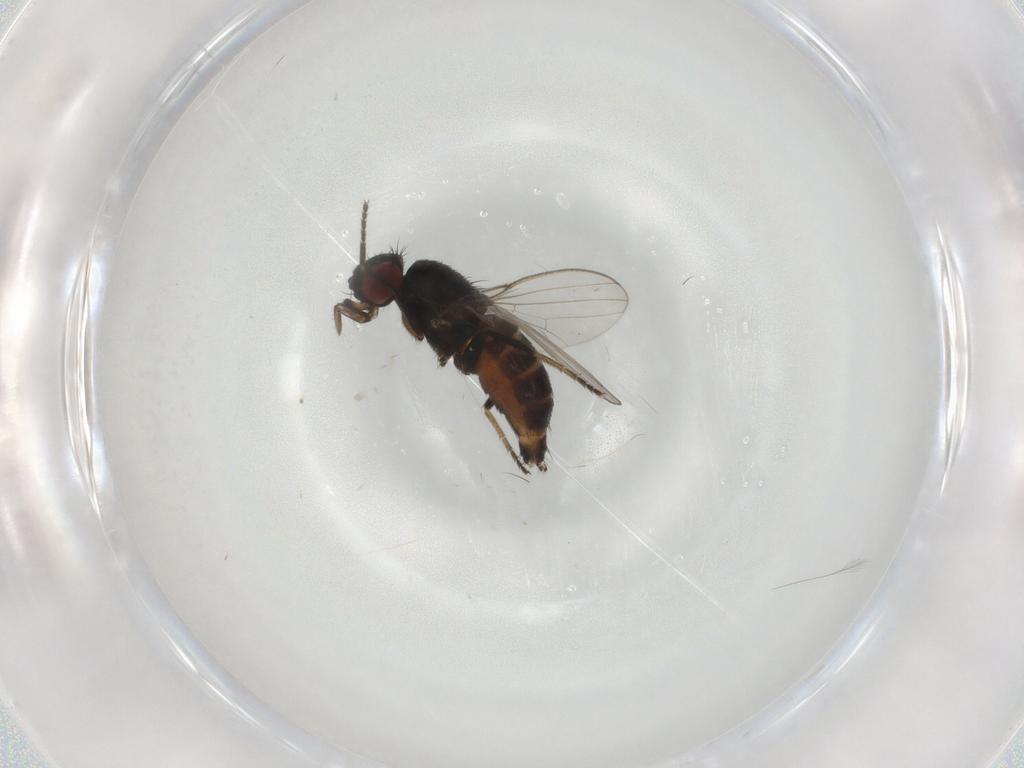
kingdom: Animalia
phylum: Arthropoda
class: Insecta
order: Diptera
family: Milichiidae
